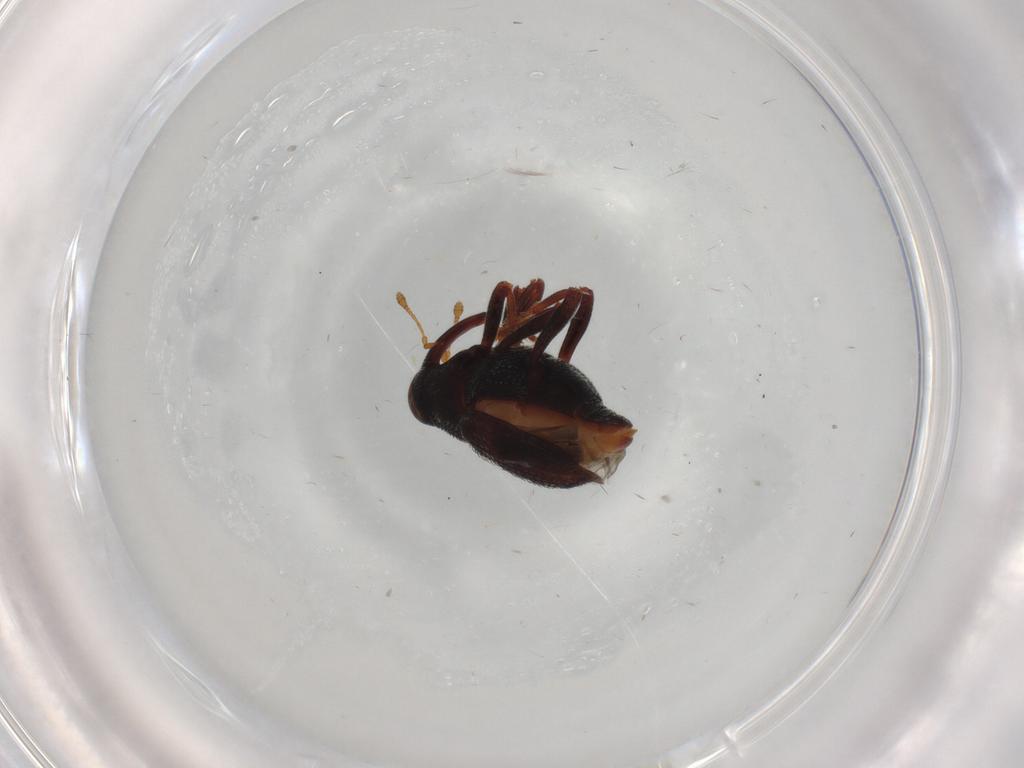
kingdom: Animalia
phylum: Arthropoda
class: Insecta
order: Coleoptera
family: Curculionidae
